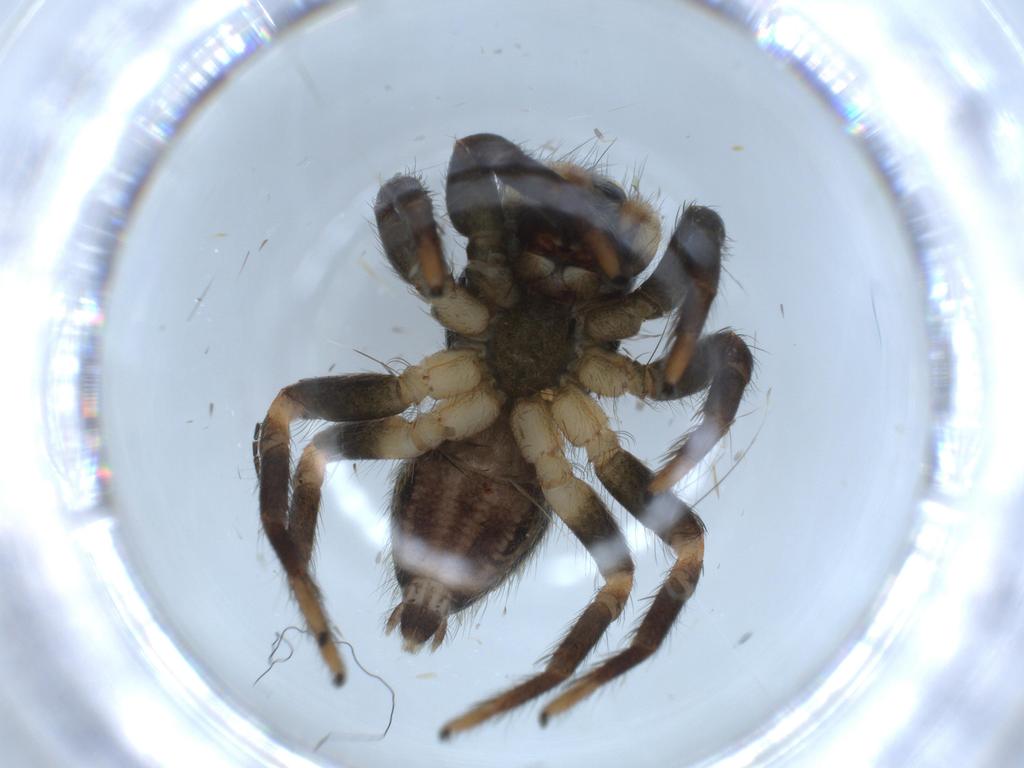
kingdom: Animalia
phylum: Arthropoda
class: Arachnida
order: Araneae
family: Salticidae
